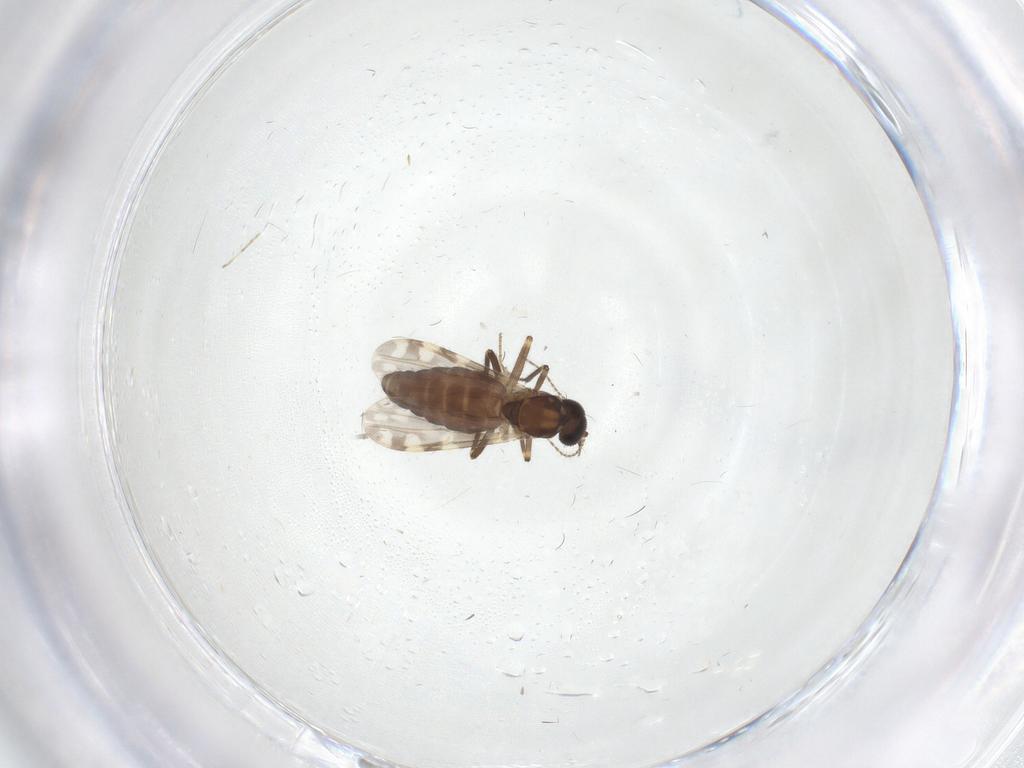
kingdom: Animalia
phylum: Arthropoda
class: Insecta
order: Diptera
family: Ceratopogonidae
